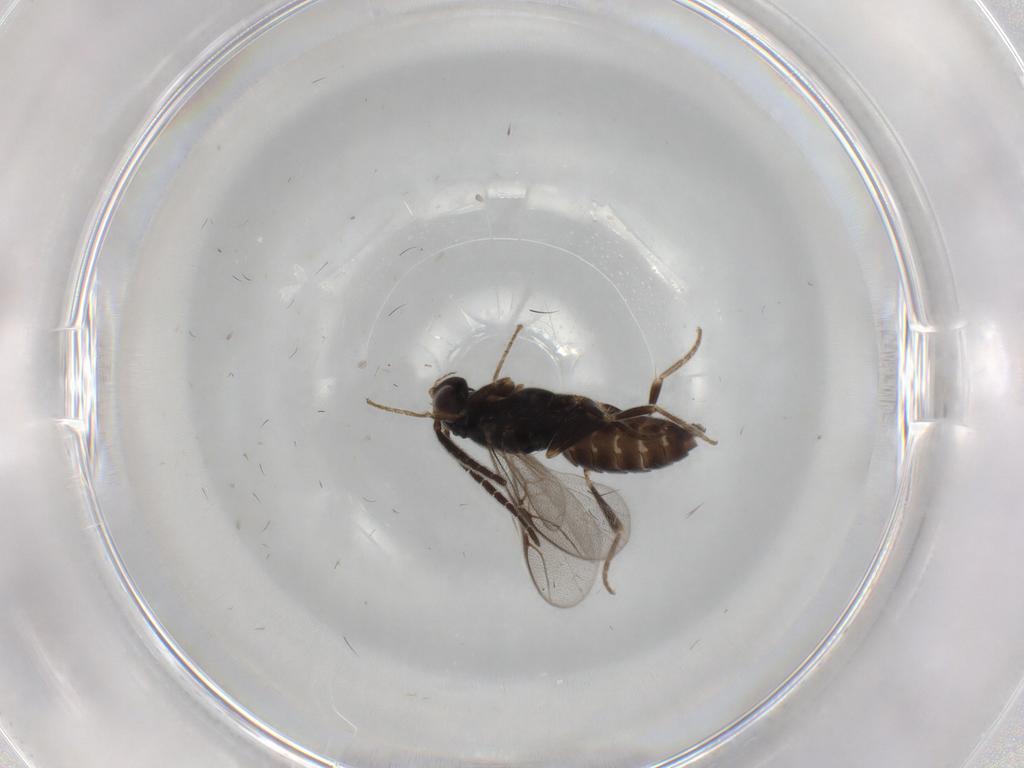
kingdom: Animalia
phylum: Arthropoda
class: Insecta
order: Hymenoptera
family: Dryinidae
